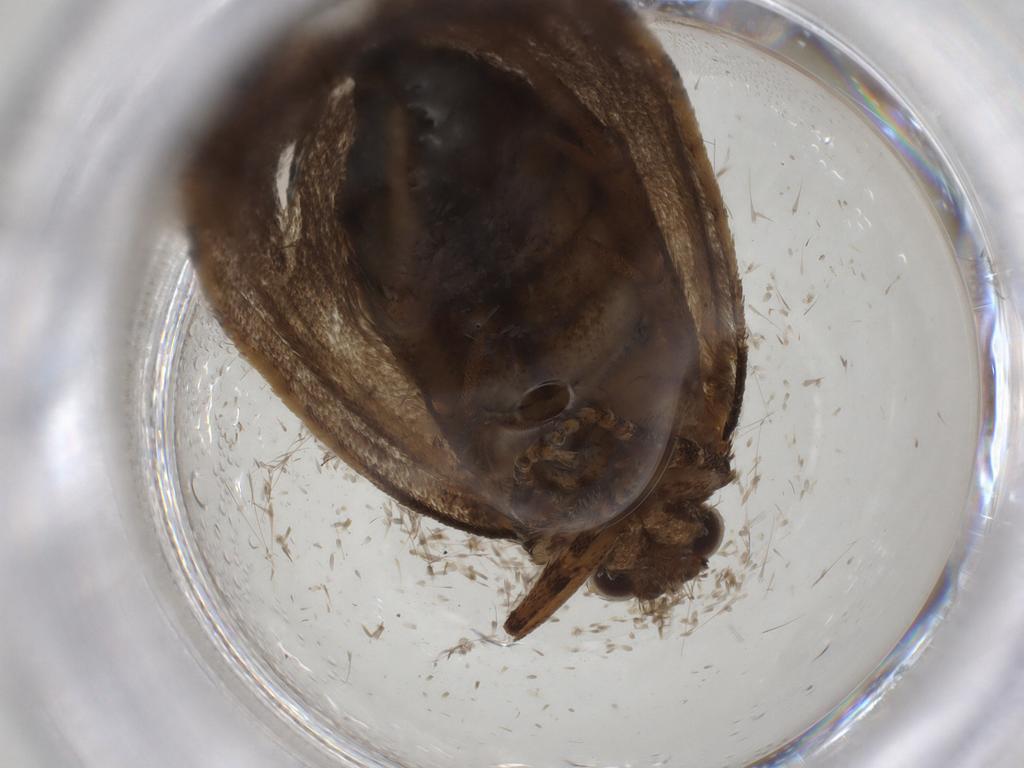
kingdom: Animalia
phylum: Arthropoda
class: Insecta
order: Lepidoptera
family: Tineidae
